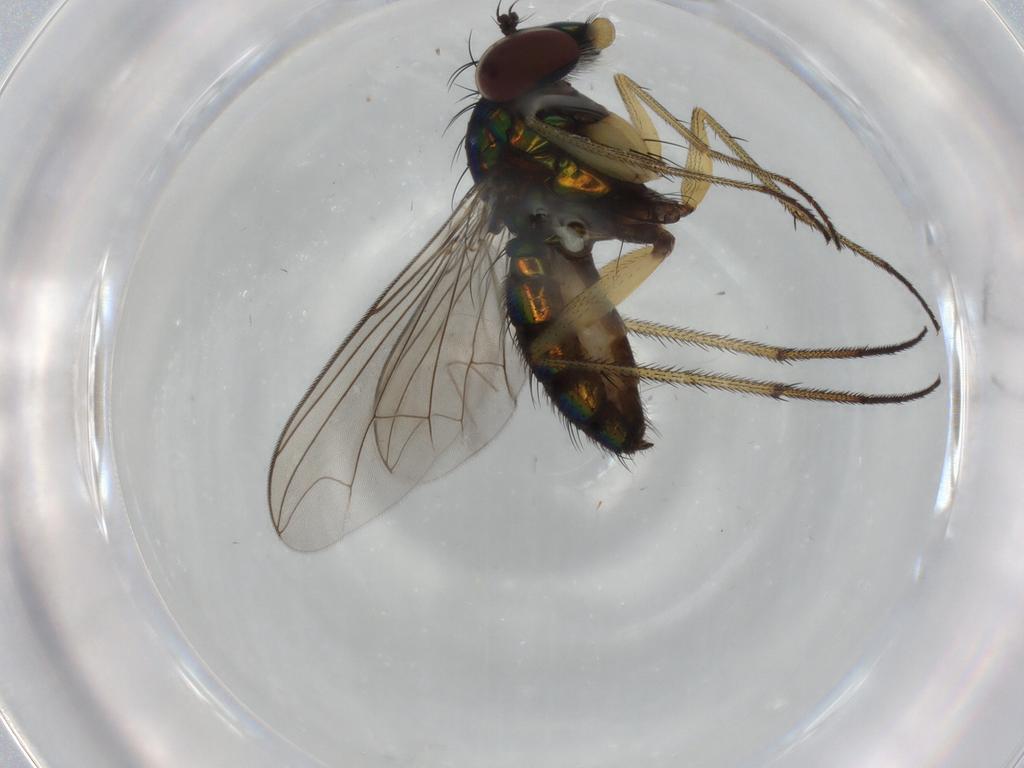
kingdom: Animalia
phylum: Arthropoda
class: Insecta
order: Diptera
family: Dolichopodidae
